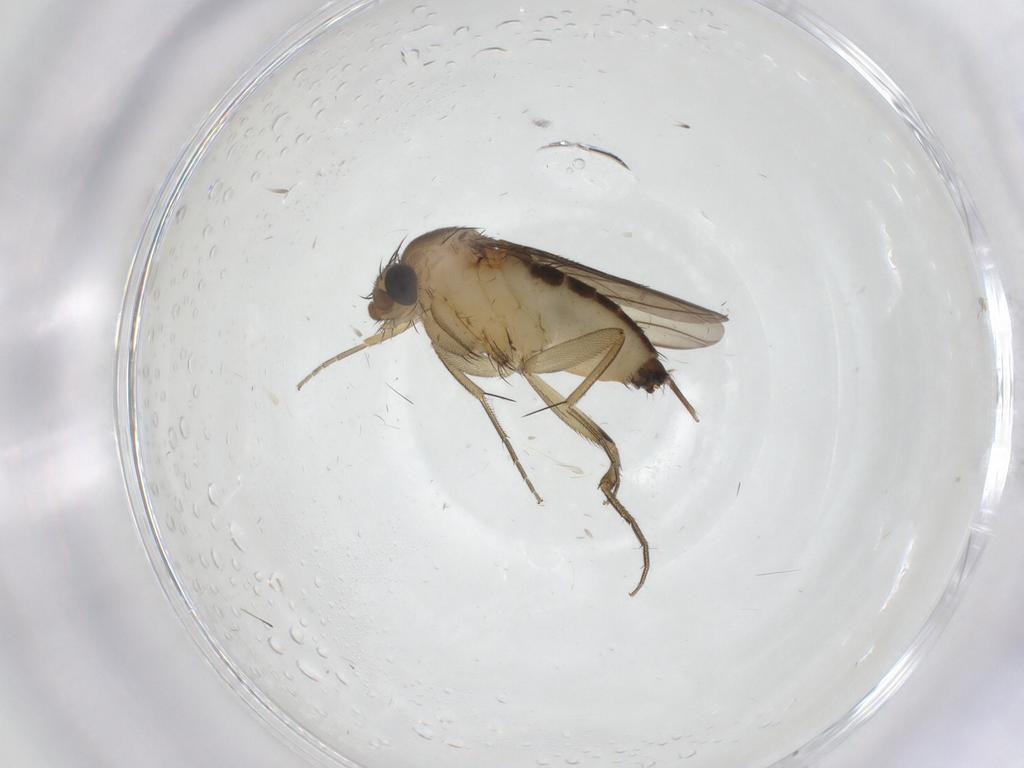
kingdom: Animalia
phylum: Arthropoda
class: Insecta
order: Diptera
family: Phoridae
